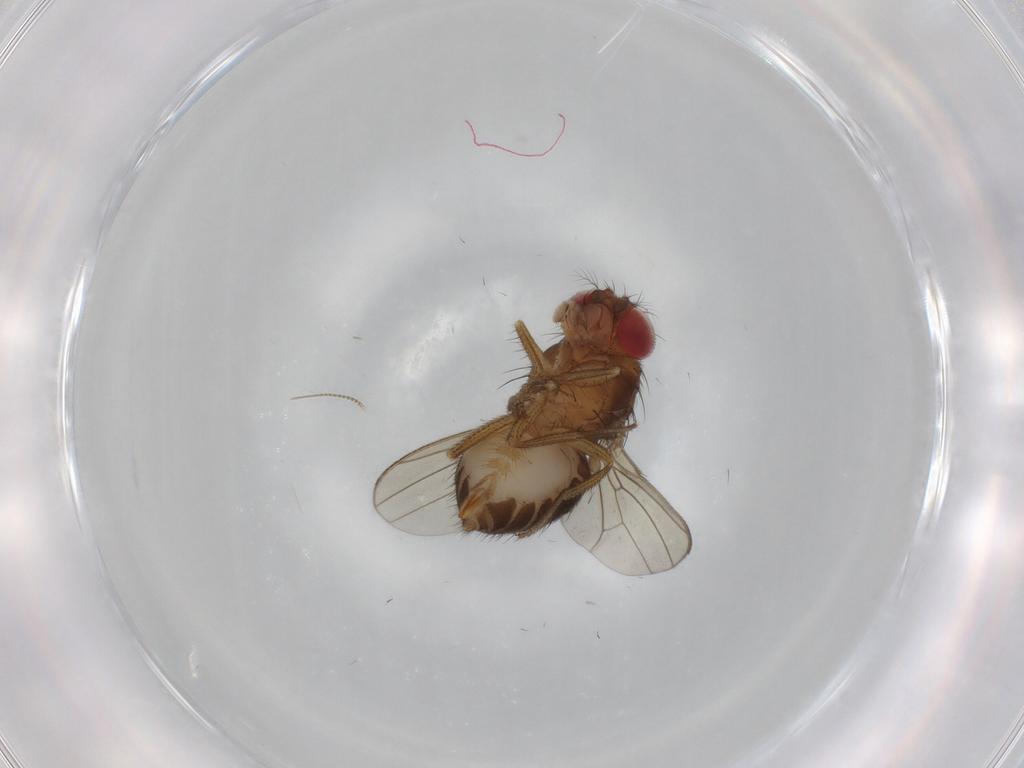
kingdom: Animalia
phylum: Arthropoda
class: Insecta
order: Diptera
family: Drosophilidae
